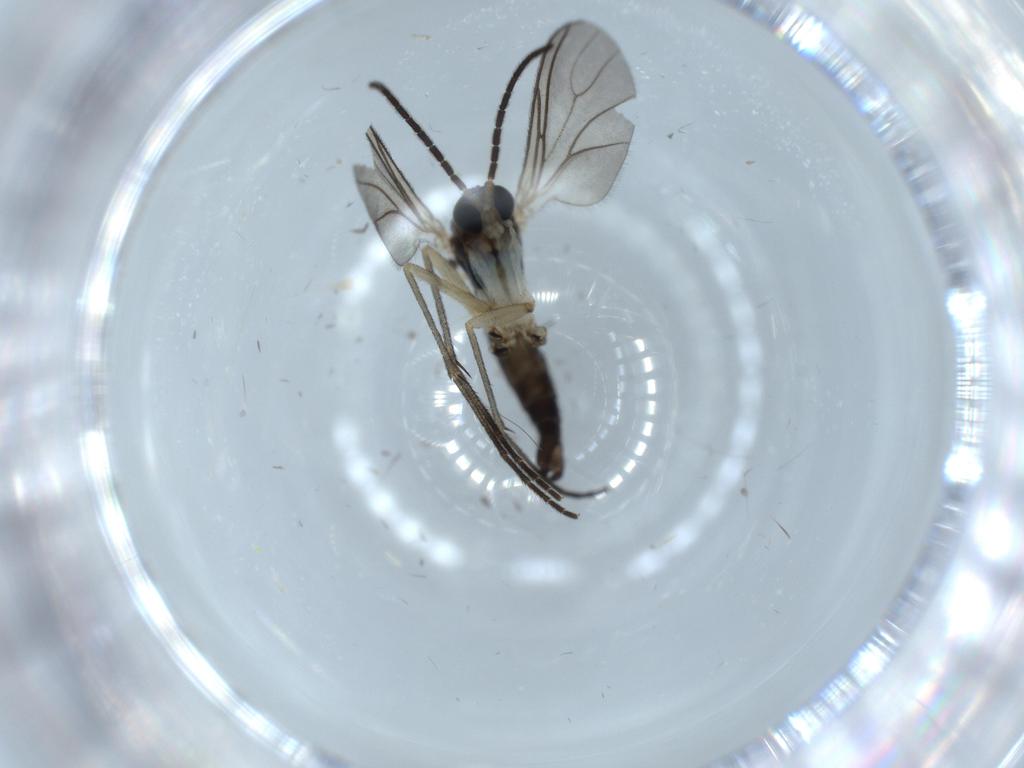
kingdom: Animalia
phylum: Arthropoda
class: Insecta
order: Diptera
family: Sciaridae
